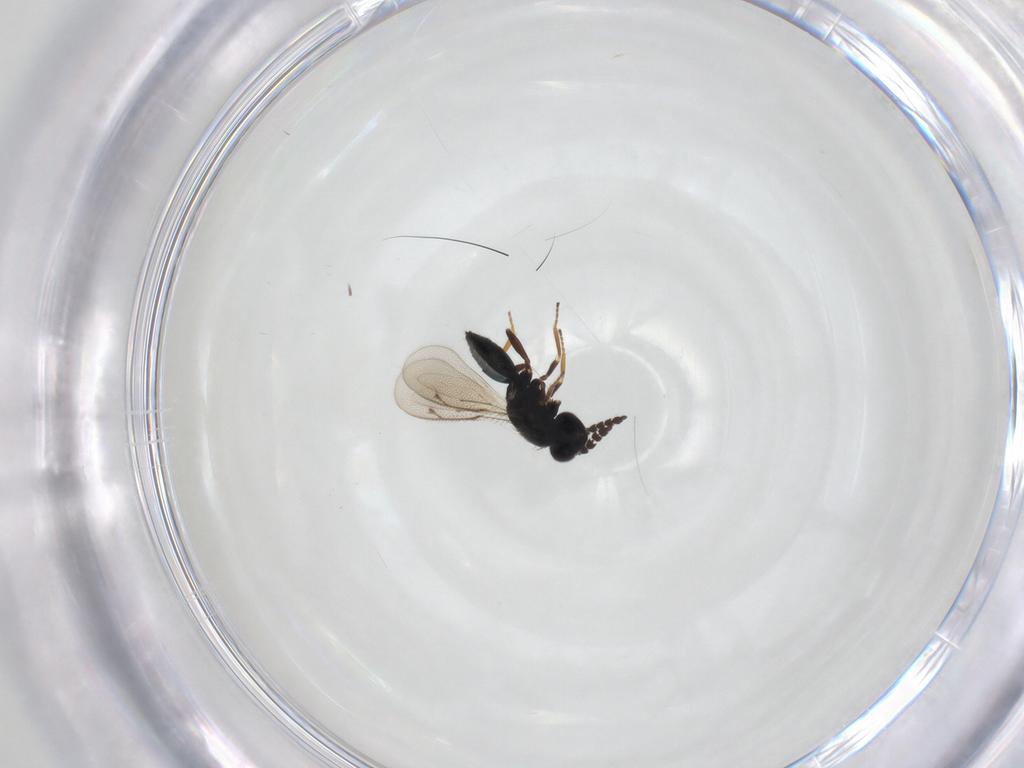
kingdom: Animalia
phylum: Arthropoda
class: Insecta
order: Hymenoptera
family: Eulophidae
